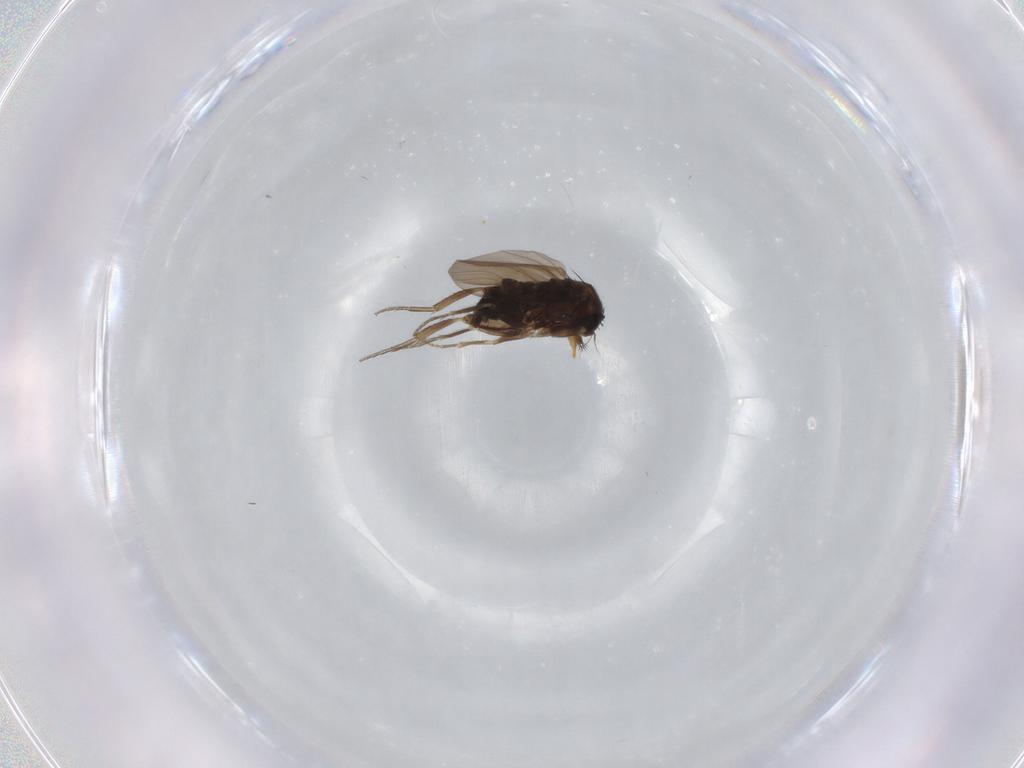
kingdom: Animalia
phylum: Arthropoda
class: Insecta
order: Diptera
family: Phoridae
